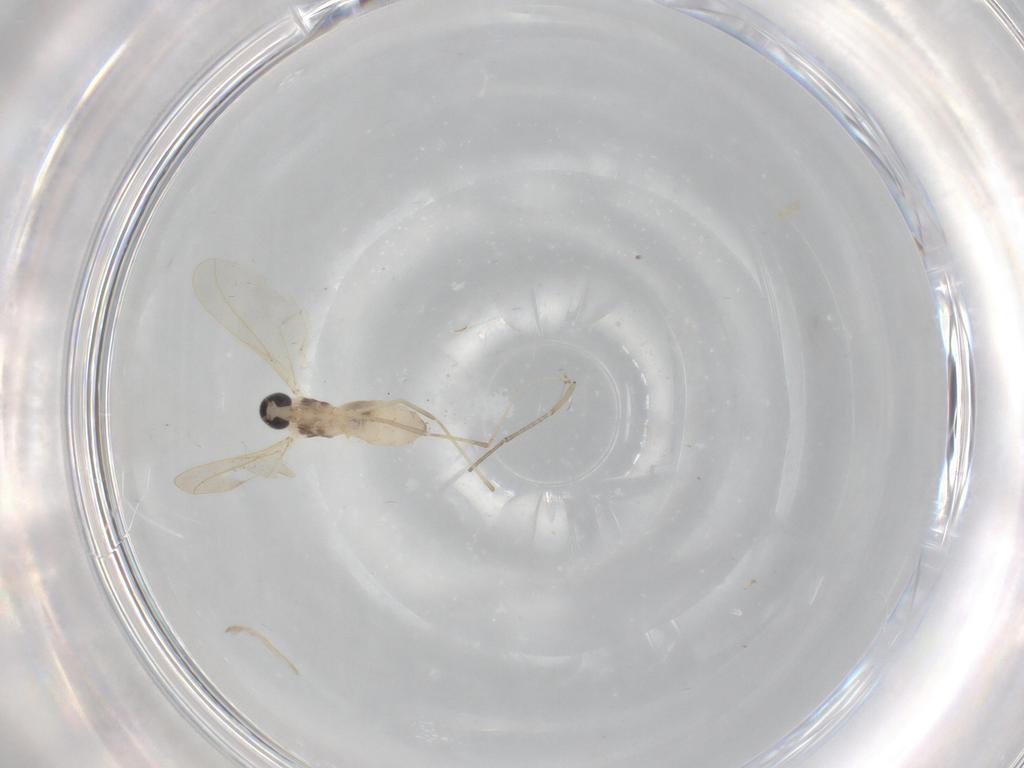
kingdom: Animalia
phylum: Arthropoda
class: Insecta
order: Diptera
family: Cecidomyiidae
